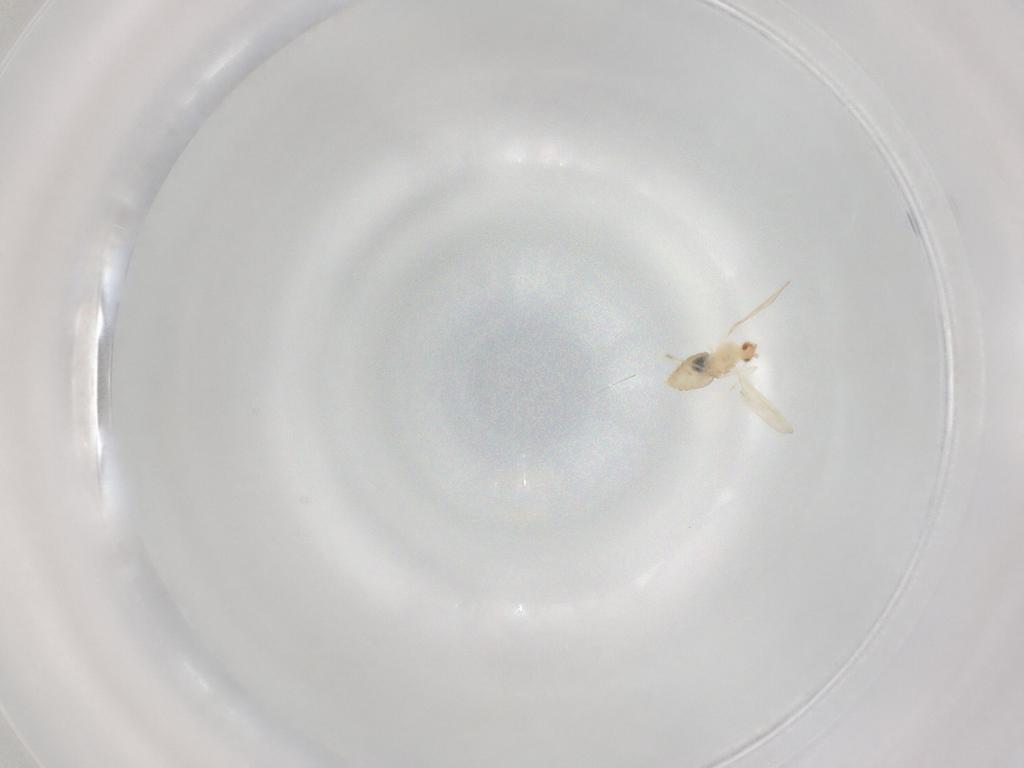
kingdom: Animalia
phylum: Arthropoda
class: Insecta
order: Diptera
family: Cecidomyiidae
